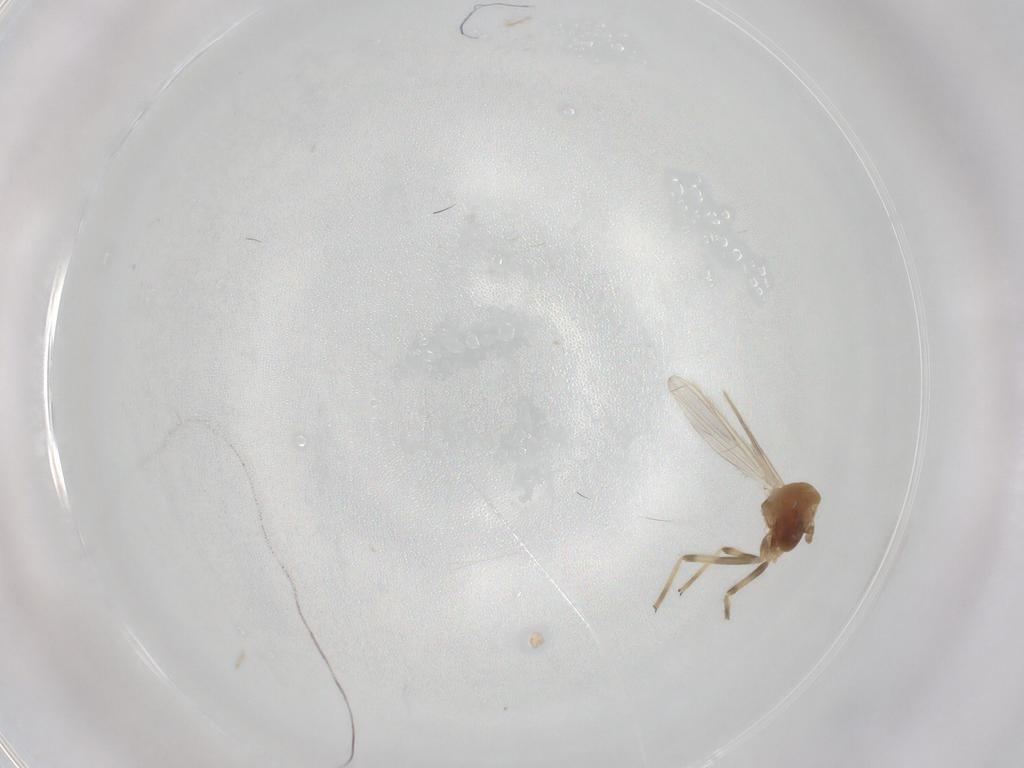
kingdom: Animalia
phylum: Arthropoda
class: Insecta
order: Diptera
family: Chironomidae
